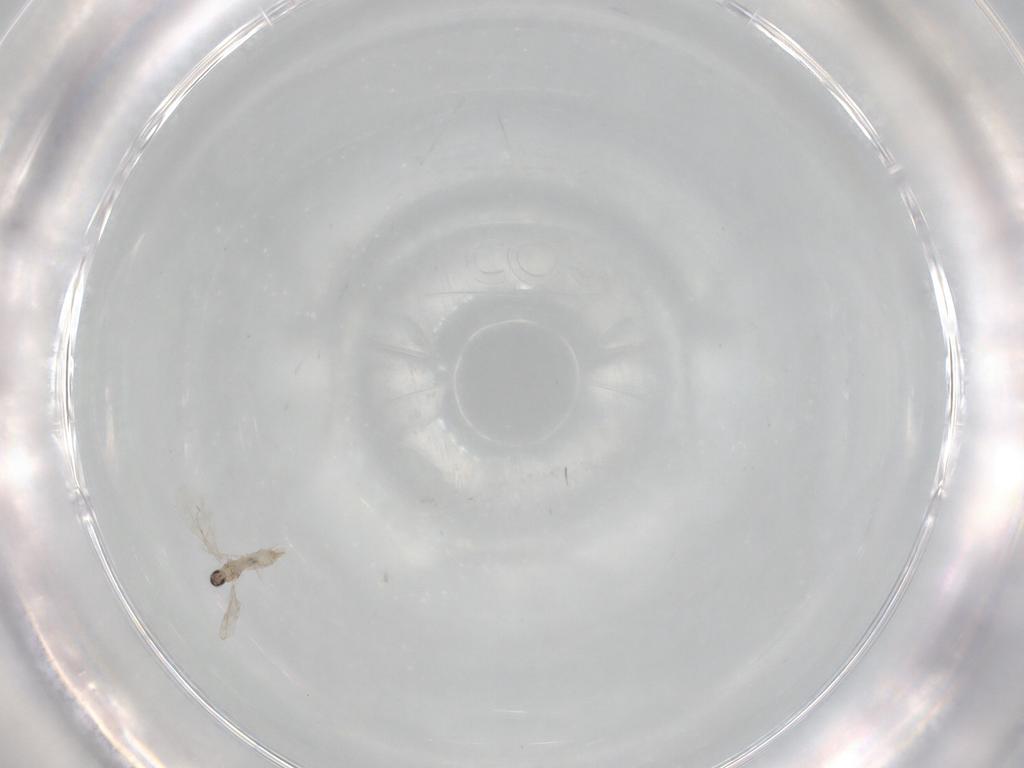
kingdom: Animalia
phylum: Arthropoda
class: Insecta
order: Diptera
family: Cecidomyiidae
